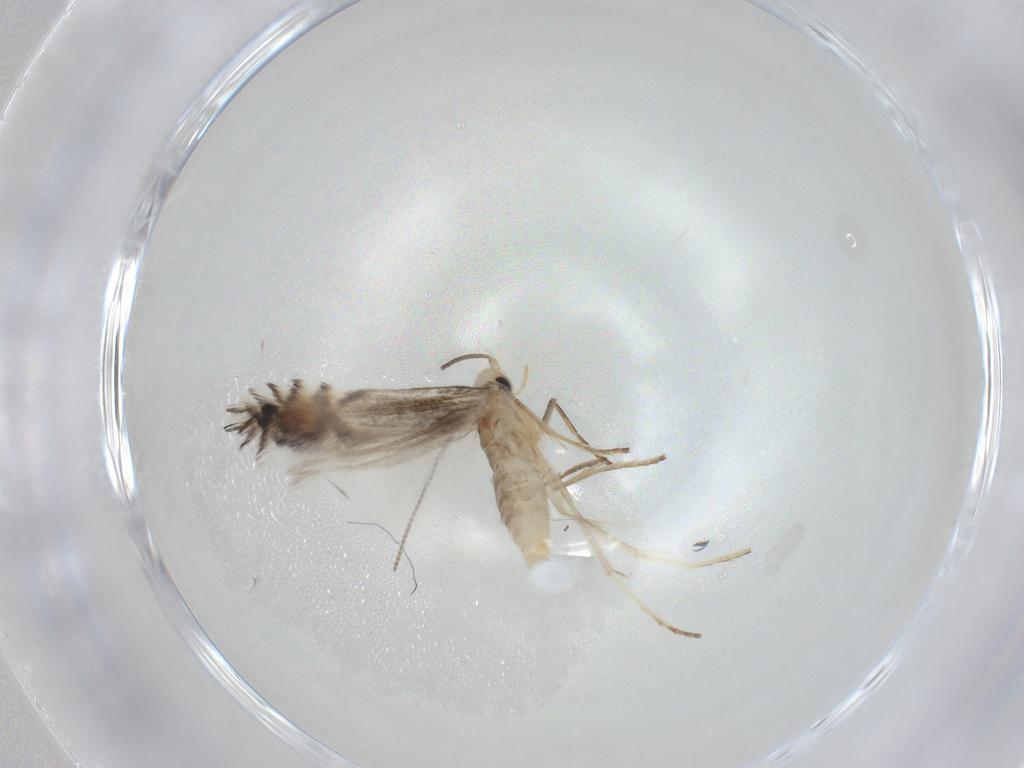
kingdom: Animalia
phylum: Arthropoda
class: Insecta
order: Lepidoptera
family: Gracillariidae
